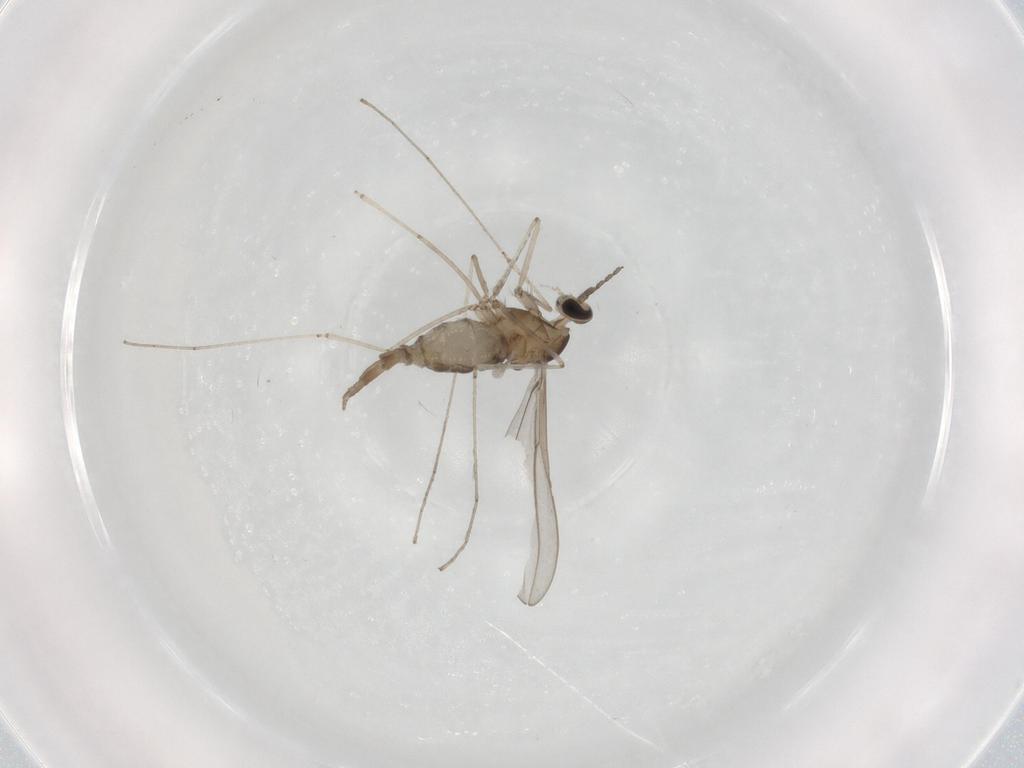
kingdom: Animalia
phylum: Arthropoda
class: Insecta
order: Diptera
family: Cecidomyiidae
